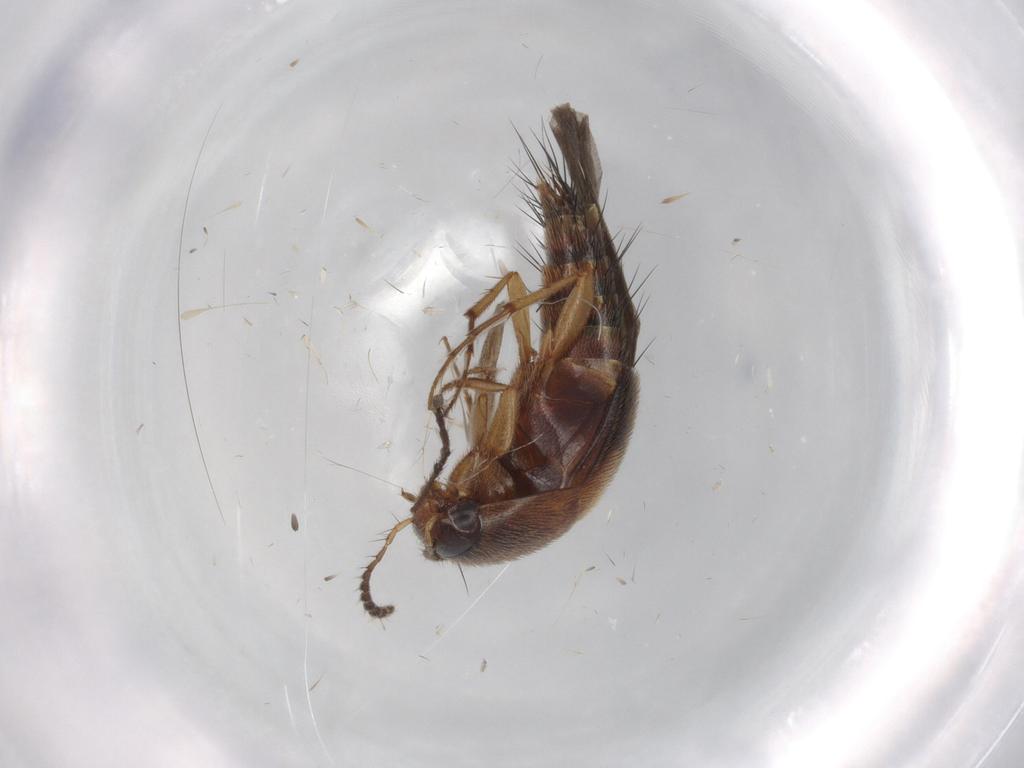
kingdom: Animalia
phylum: Arthropoda
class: Insecta
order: Coleoptera
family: Staphylinidae
